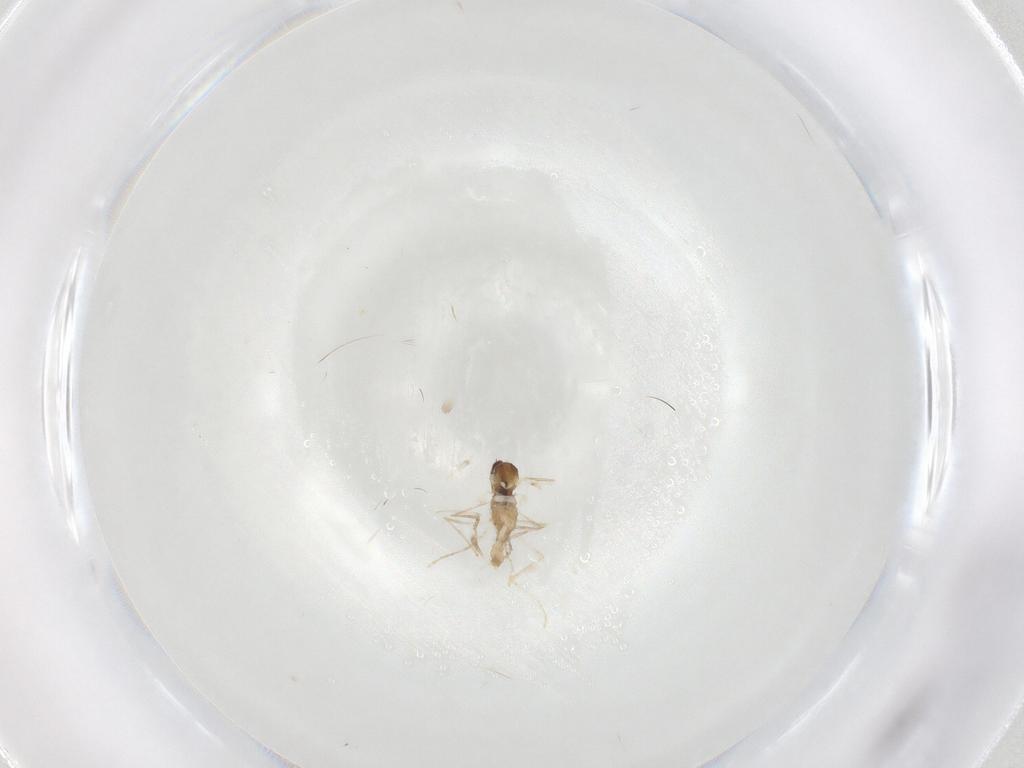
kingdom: Animalia
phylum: Arthropoda
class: Insecta
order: Diptera
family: Cecidomyiidae
